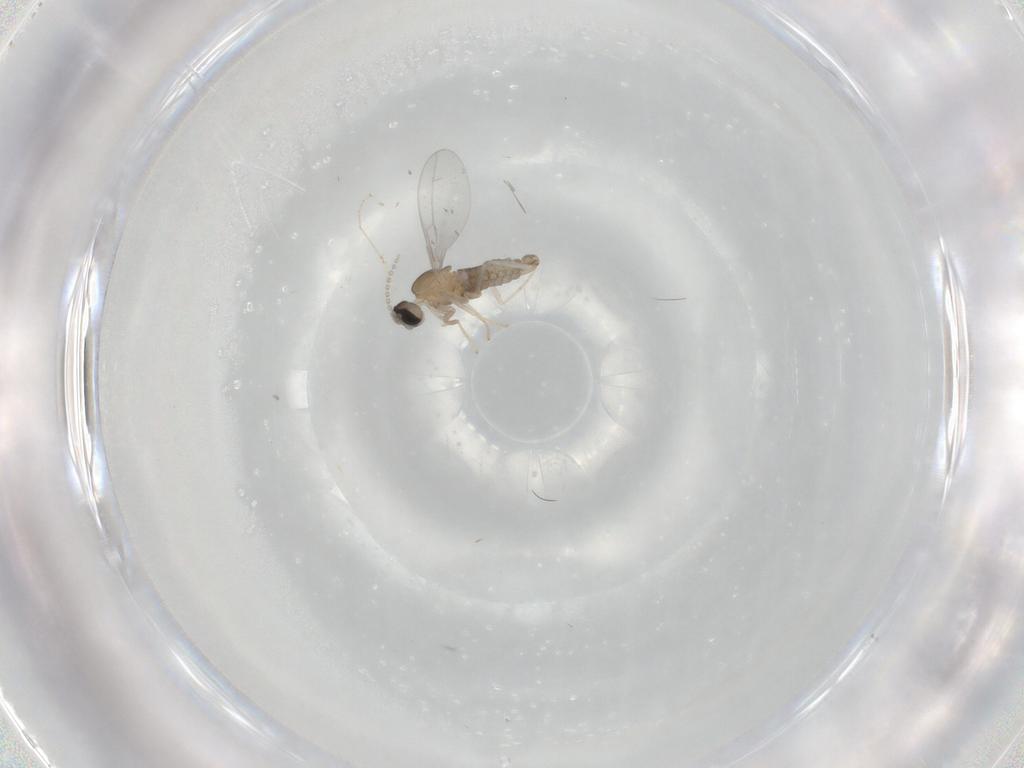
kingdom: Animalia
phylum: Arthropoda
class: Insecta
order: Diptera
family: Cecidomyiidae
